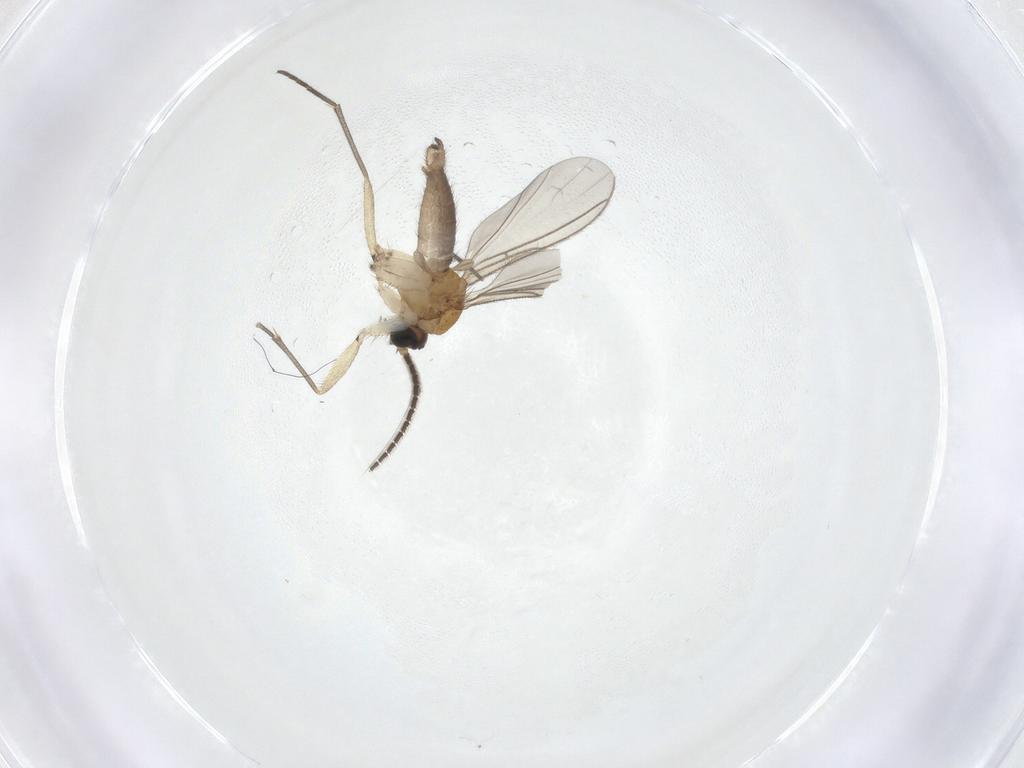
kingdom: Animalia
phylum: Arthropoda
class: Insecta
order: Diptera
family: Sciaridae
